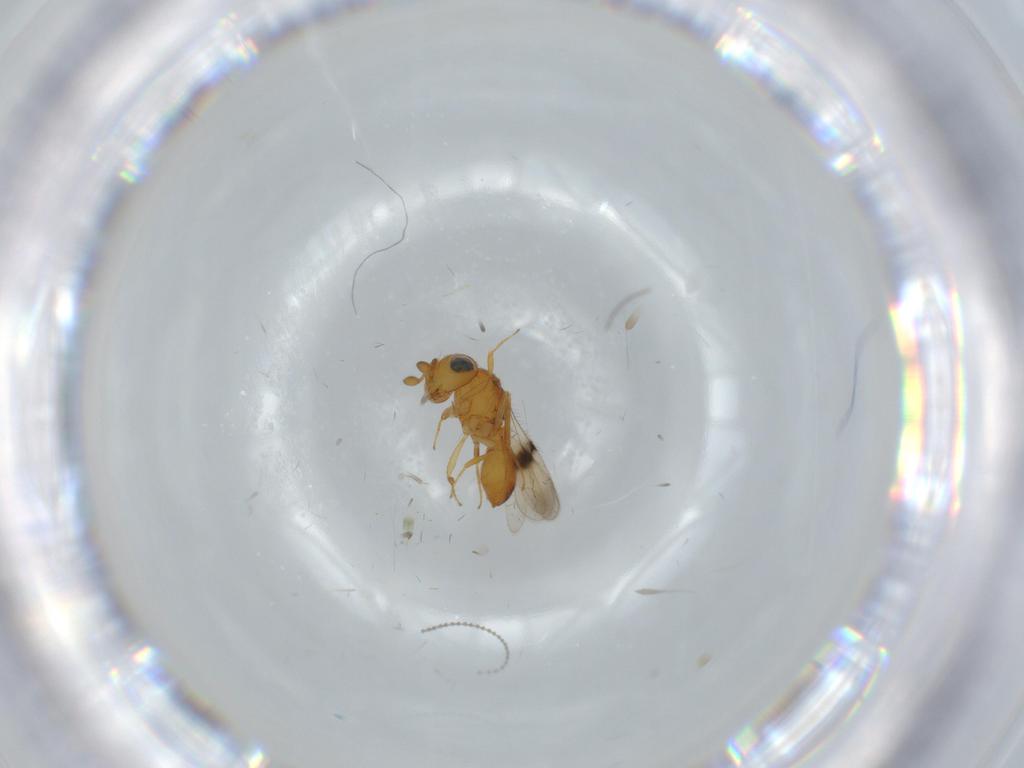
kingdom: Animalia
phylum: Arthropoda
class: Insecta
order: Hymenoptera
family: Scelionidae
